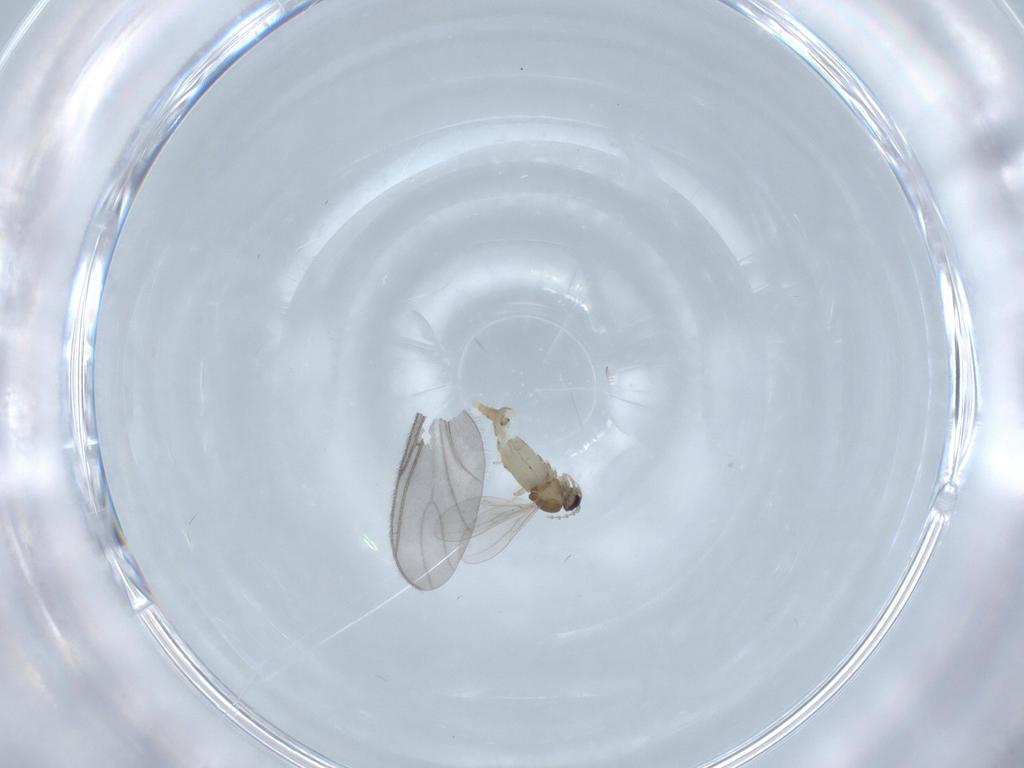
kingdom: Animalia
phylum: Arthropoda
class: Insecta
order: Diptera
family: Cecidomyiidae
